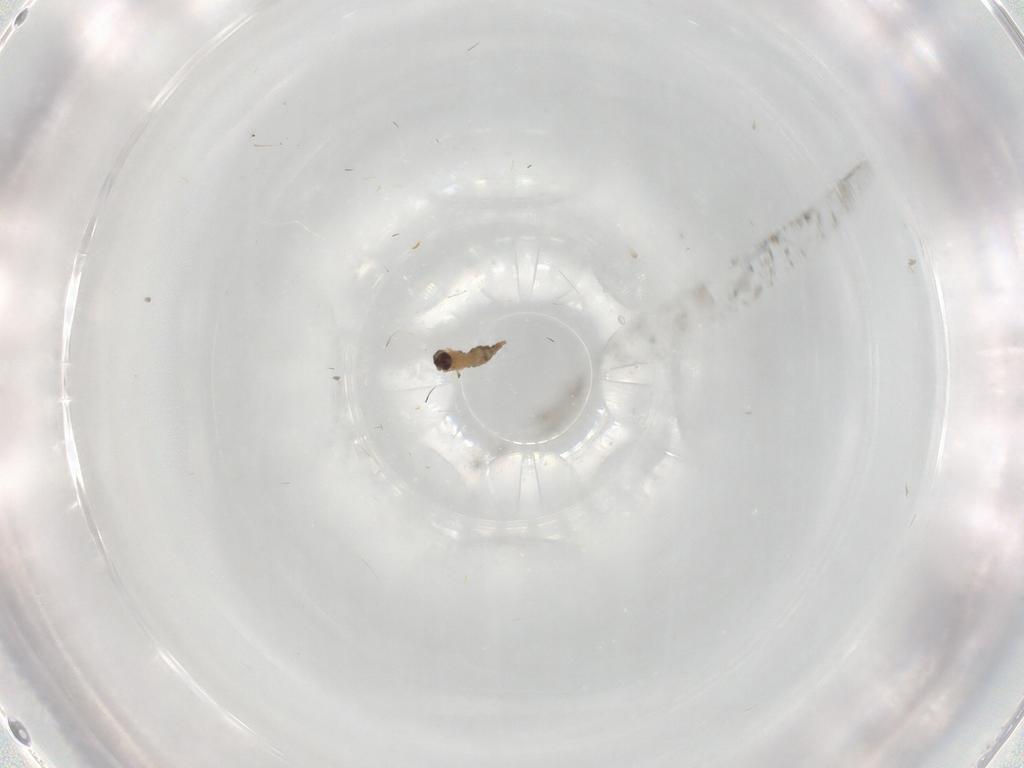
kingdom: Animalia
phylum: Arthropoda
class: Insecta
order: Diptera
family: Cecidomyiidae
